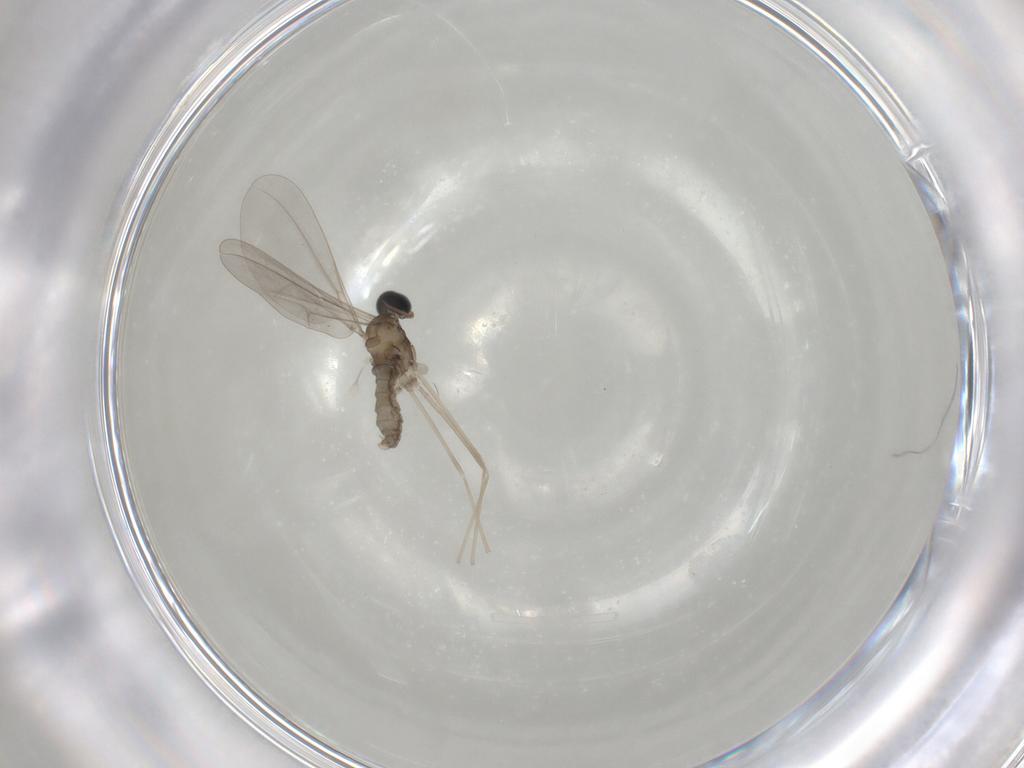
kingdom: Animalia
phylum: Arthropoda
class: Insecta
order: Diptera
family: Cecidomyiidae
